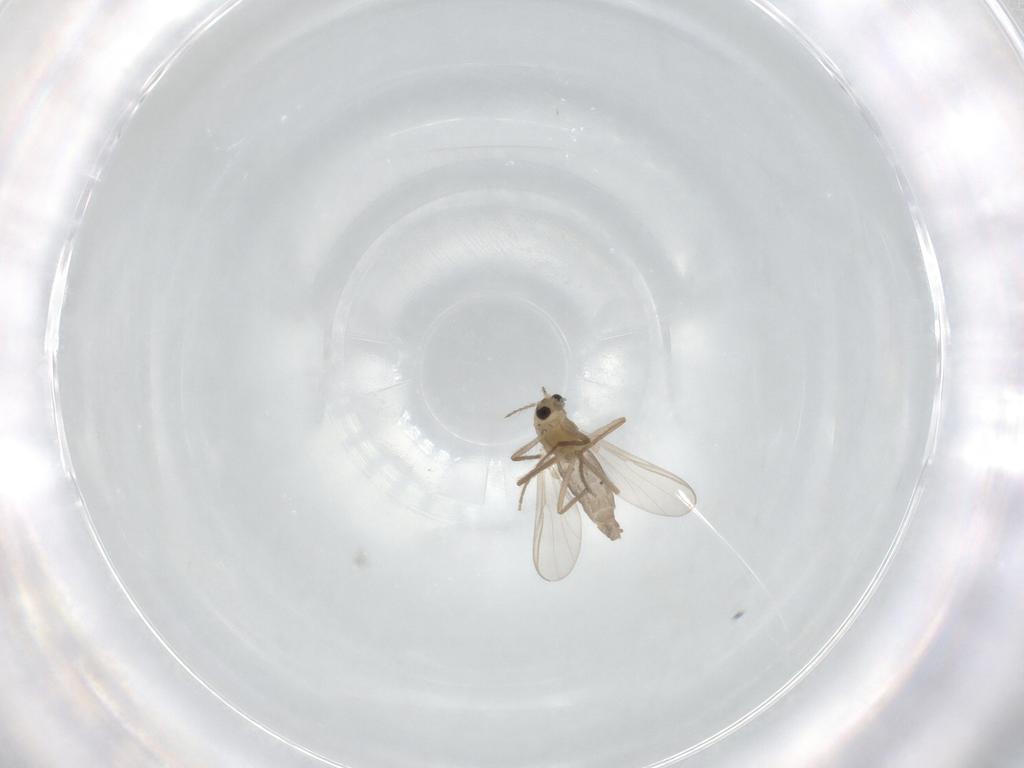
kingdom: Animalia
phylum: Arthropoda
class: Insecta
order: Diptera
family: Chironomidae
